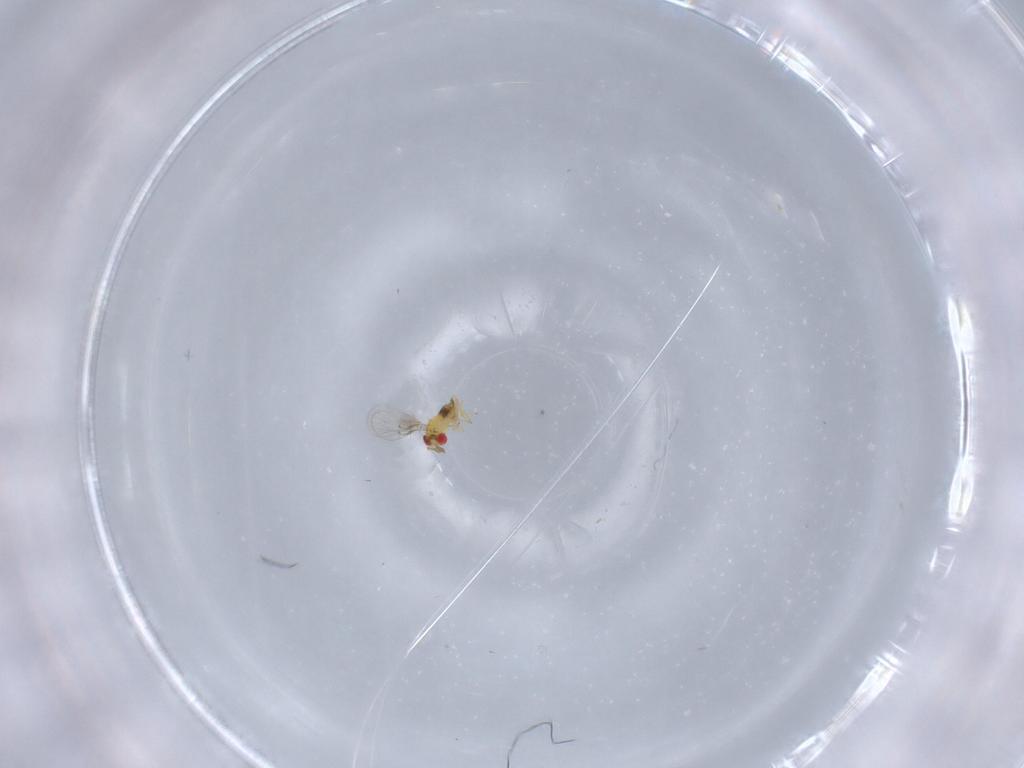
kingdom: Animalia
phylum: Arthropoda
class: Insecta
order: Hymenoptera
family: Trichogrammatidae
